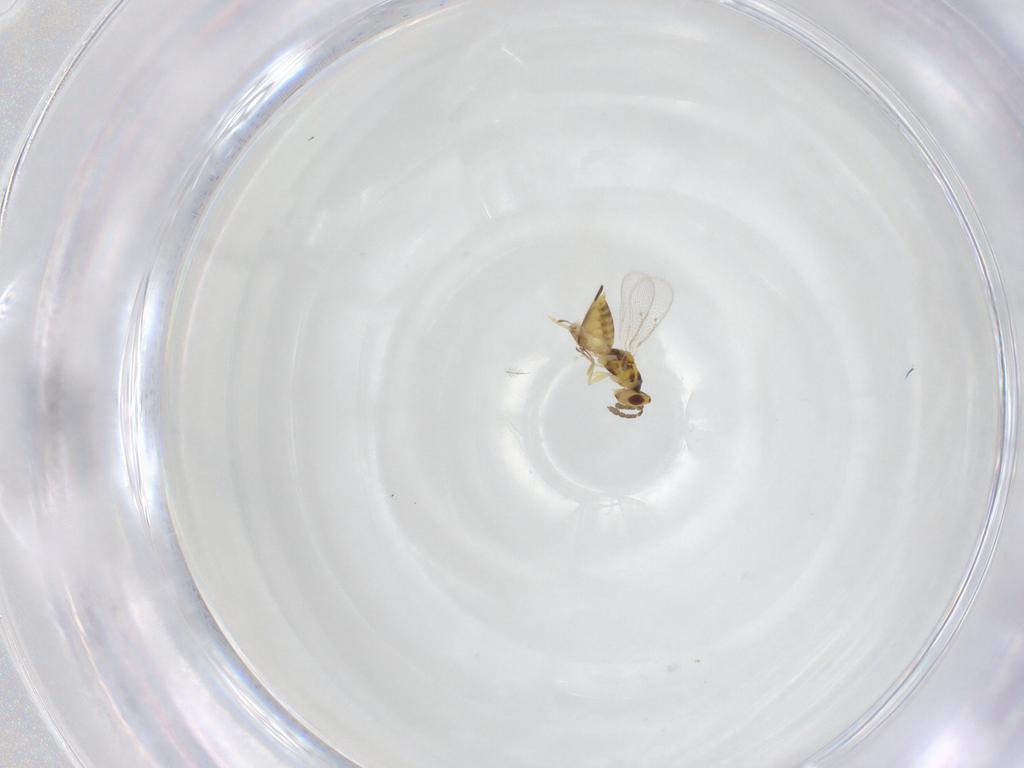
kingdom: Animalia
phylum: Arthropoda
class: Insecta
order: Hymenoptera
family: Eulophidae
